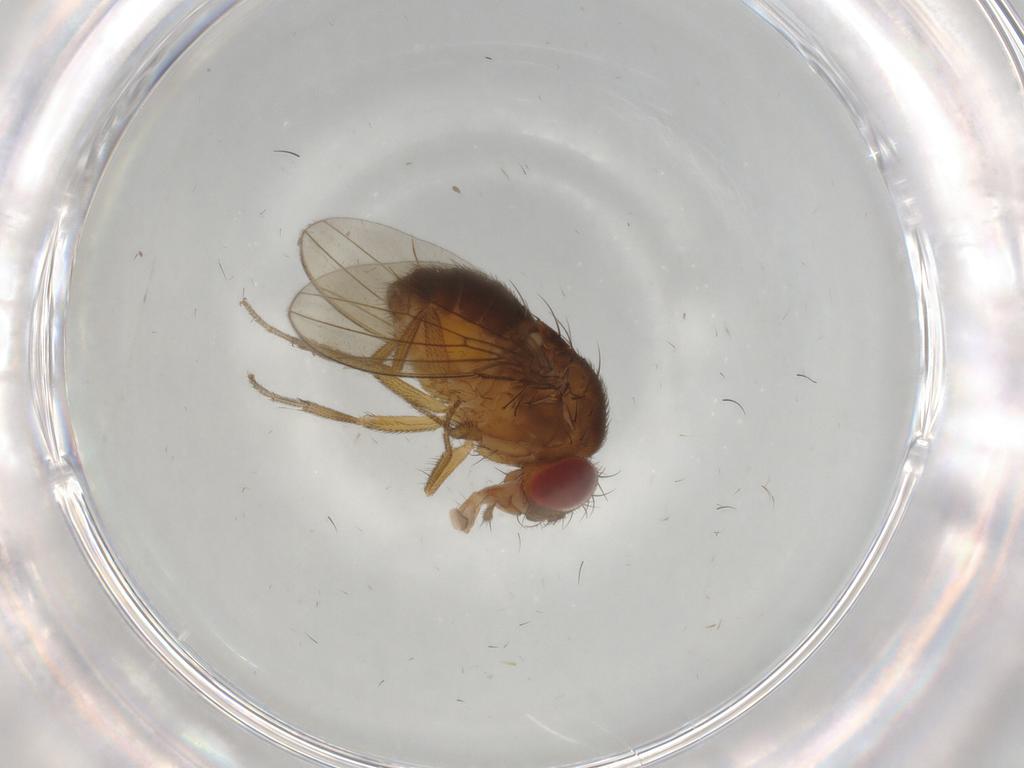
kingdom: Animalia
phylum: Arthropoda
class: Insecta
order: Diptera
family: Drosophilidae
